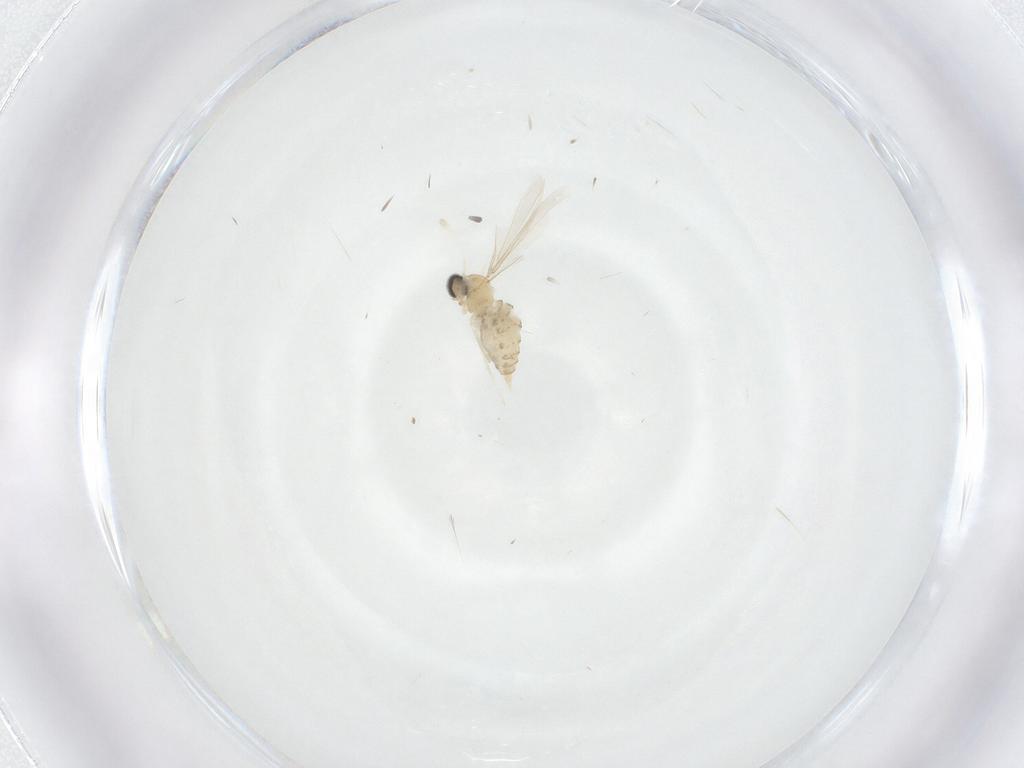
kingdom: Animalia
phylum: Arthropoda
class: Insecta
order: Diptera
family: Cecidomyiidae
